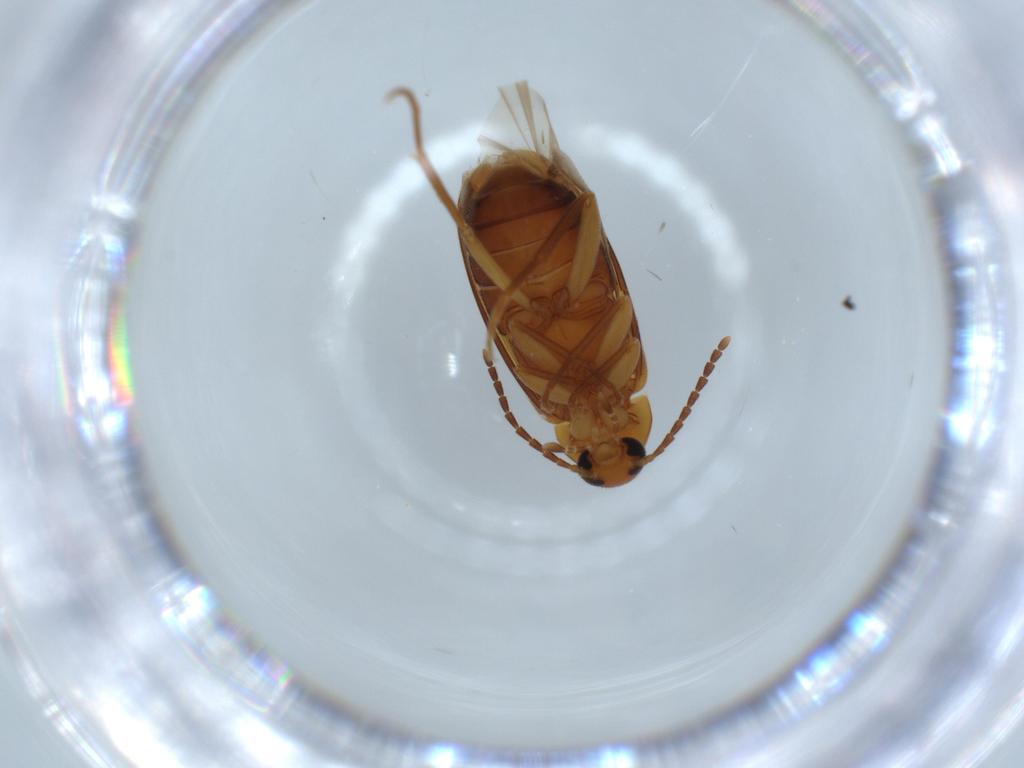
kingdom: Animalia
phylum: Arthropoda
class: Insecta
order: Coleoptera
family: Scraptiidae
